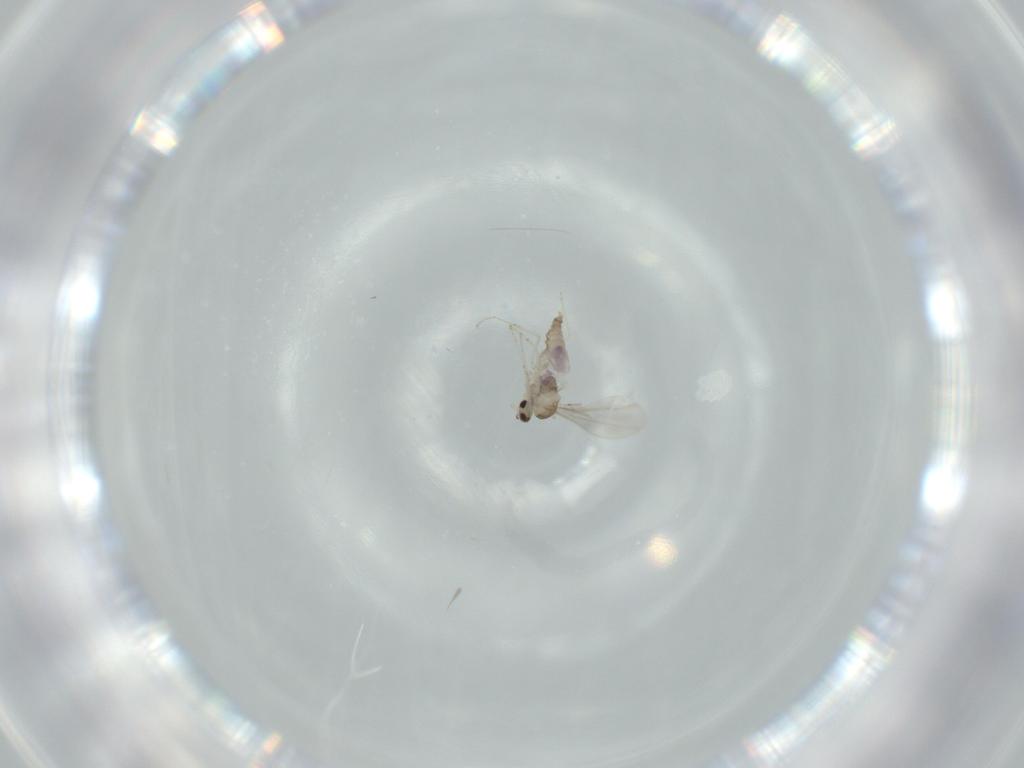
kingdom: Animalia
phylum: Arthropoda
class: Insecta
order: Diptera
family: Cecidomyiidae
